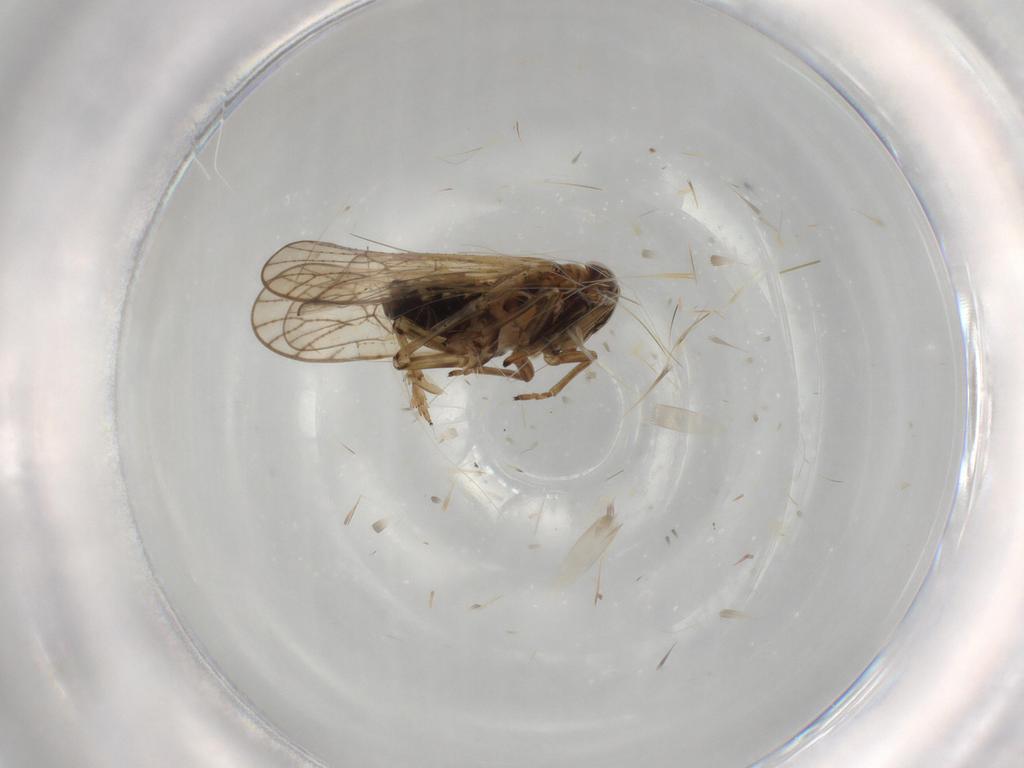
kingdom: Animalia
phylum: Arthropoda
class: Insecta
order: Hemiptera
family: Delphacidae
